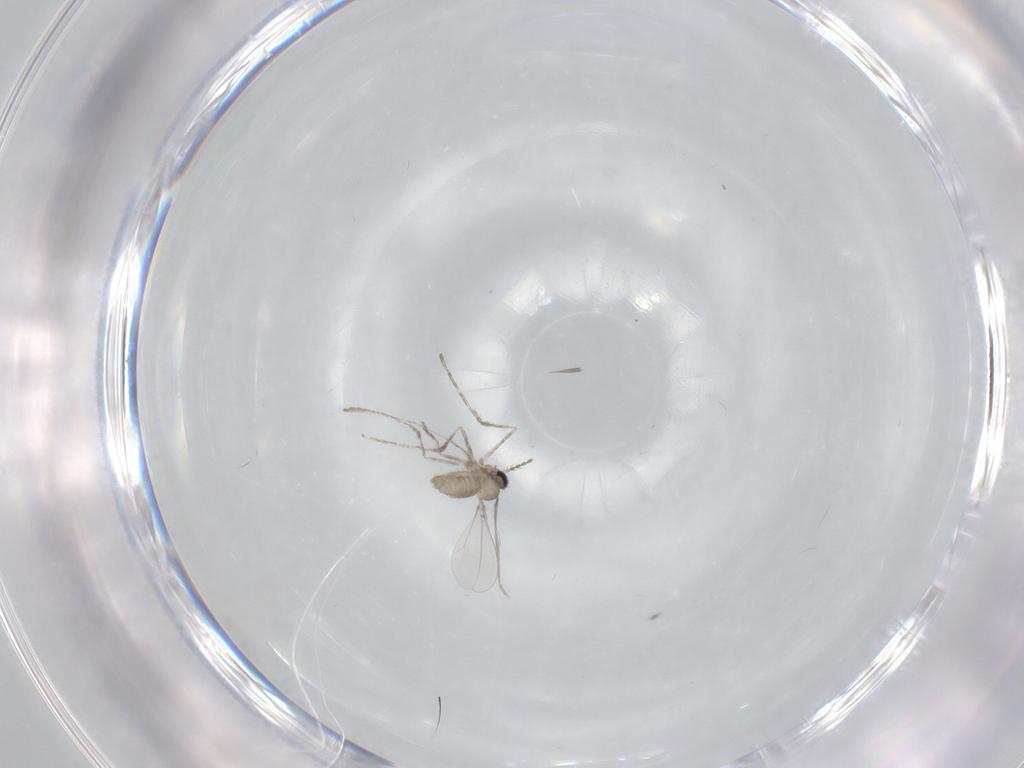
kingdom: Animalia
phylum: Arthropoda
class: Insecta
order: Diptera
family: Cecidomyiidae
